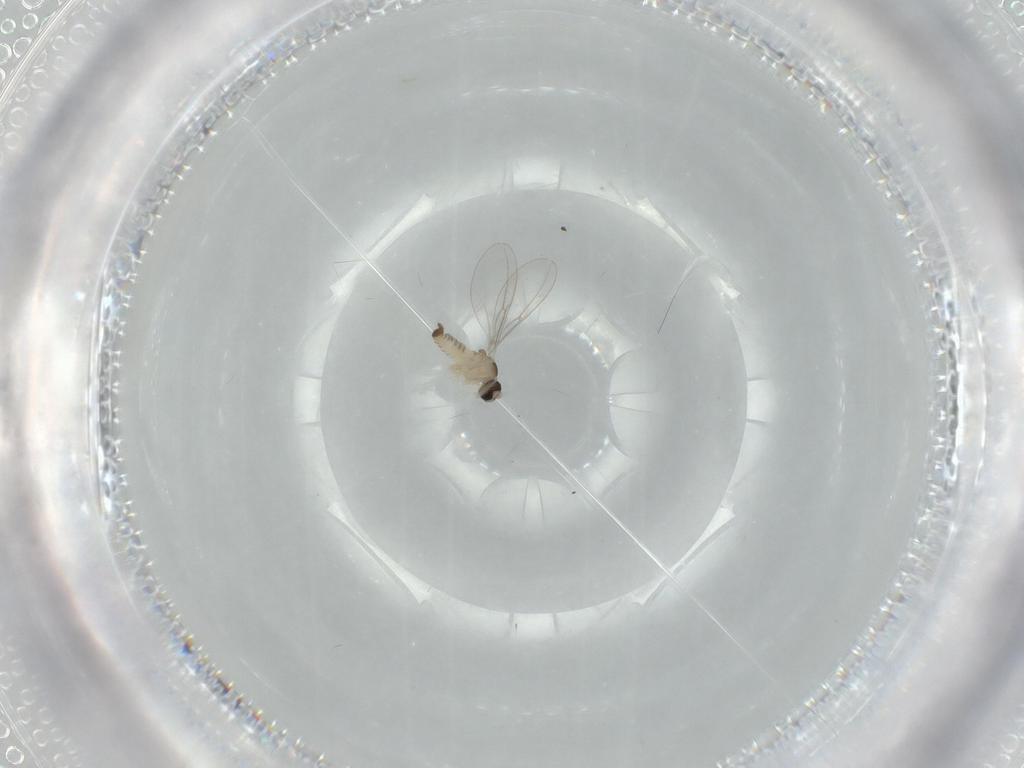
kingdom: Animalia
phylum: Arthropoda
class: Insecta
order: Diptera
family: Cecidomyiidae
